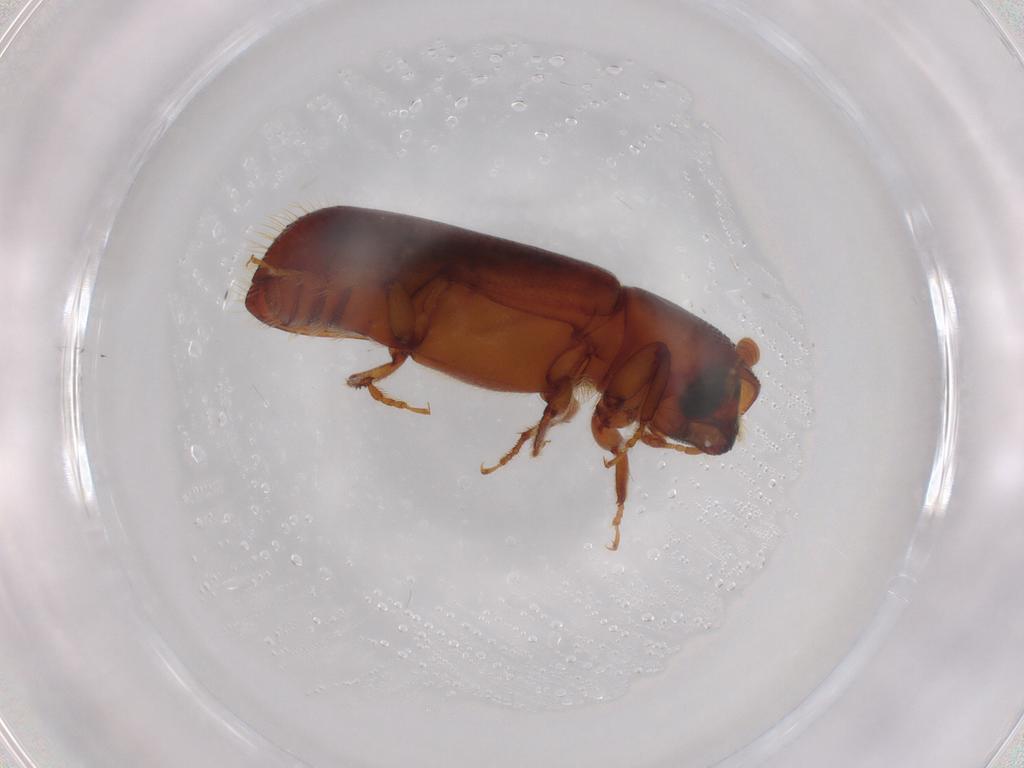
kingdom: Animalia
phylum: Arthropoda
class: Insecta
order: Coleoptera
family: Curculionidae
